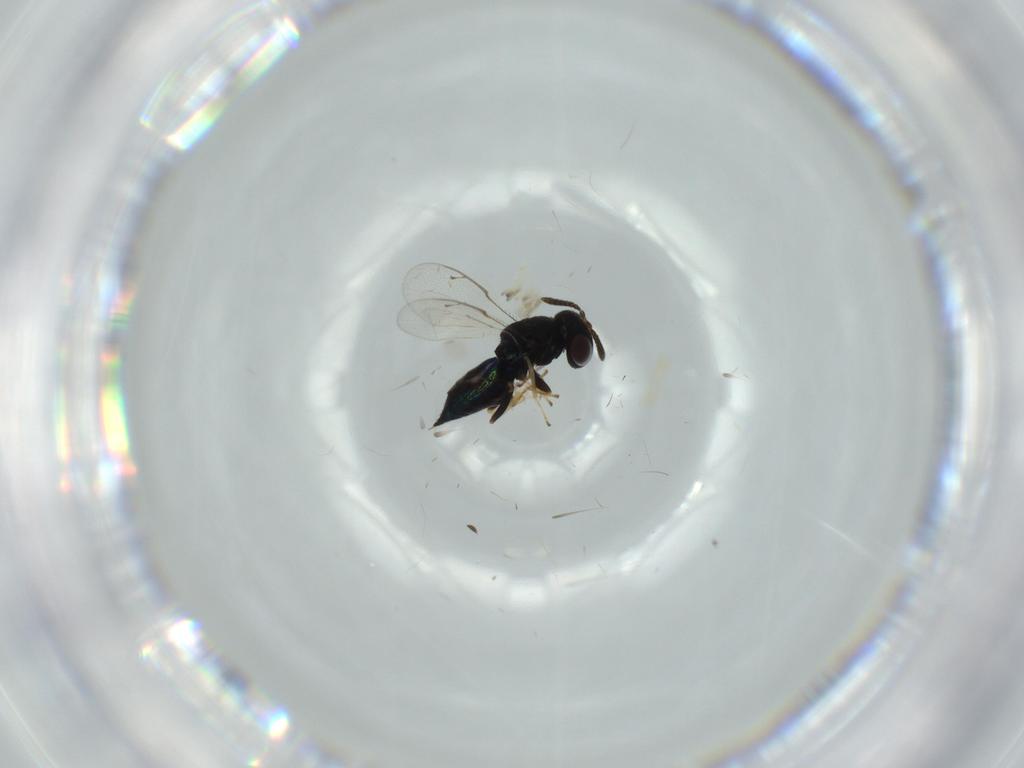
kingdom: Animalia
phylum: Arthropoda
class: Insecta
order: Hymenoptera
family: Pteromalidae
